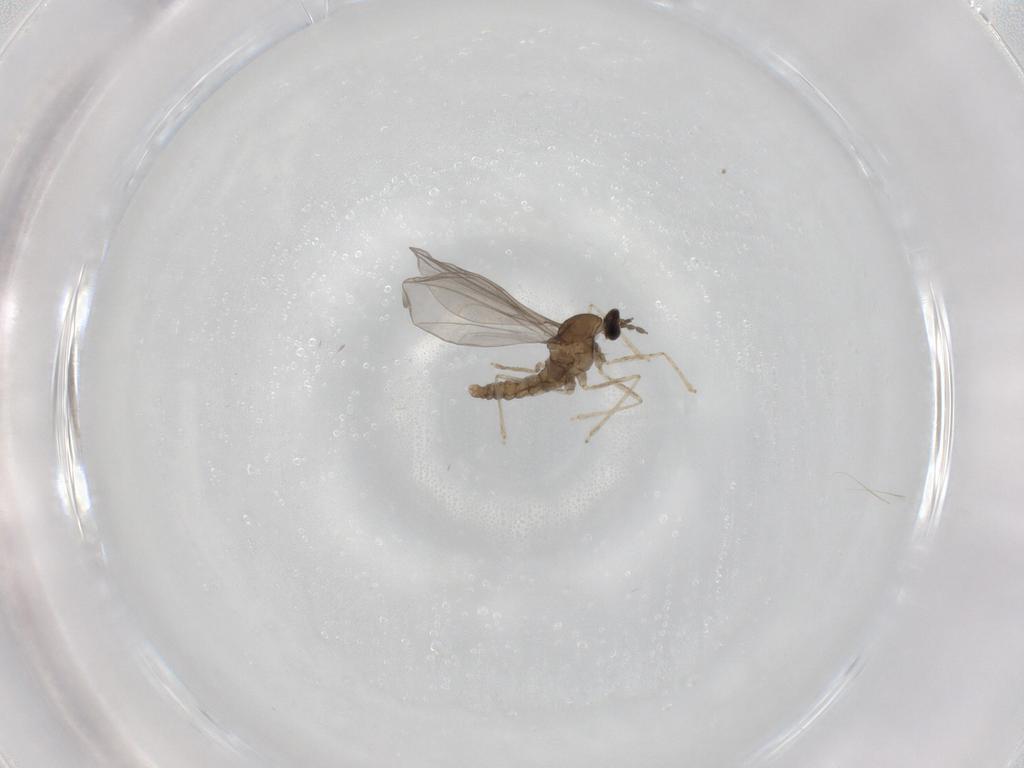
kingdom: Animalia
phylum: Arthropoda
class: Insecta
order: Diptera
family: Cecidomyiidae
